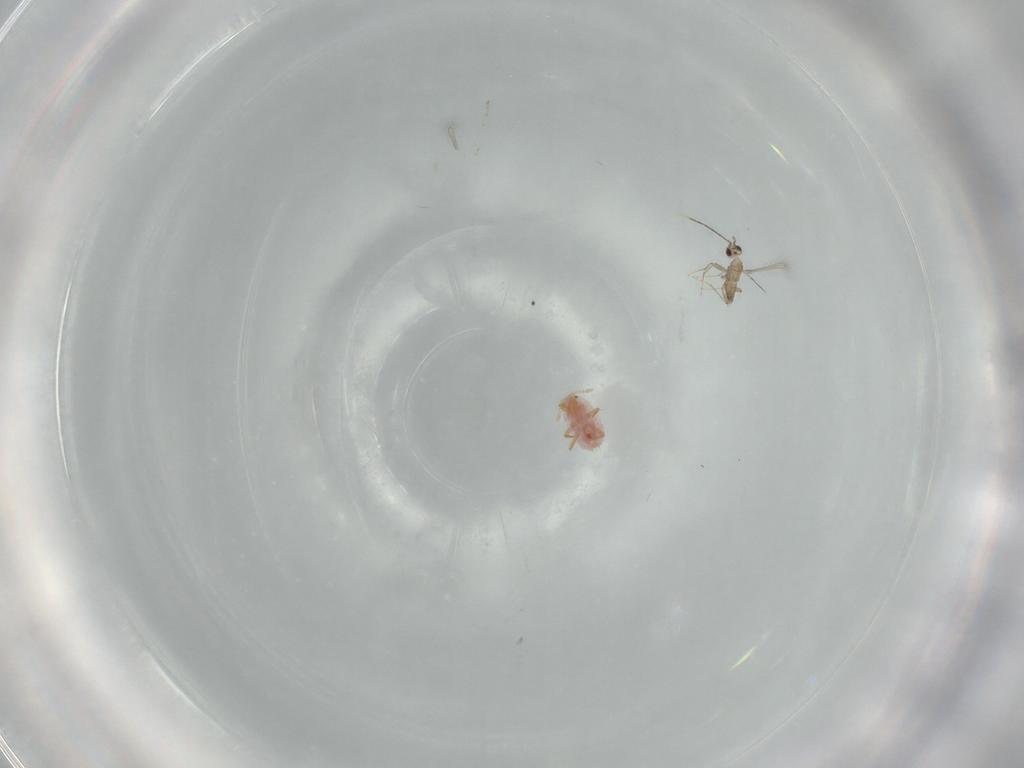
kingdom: Animalia
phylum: Arthropoda
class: Insecta
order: Diptera
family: Cecidomyiidae
